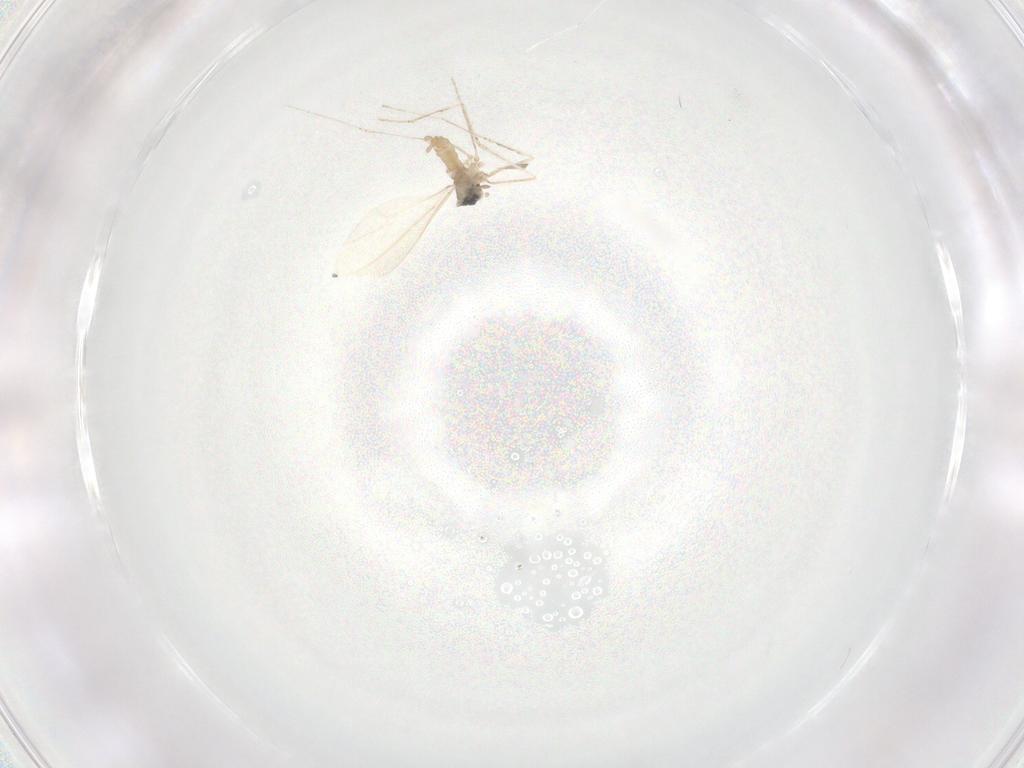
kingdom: Animalia
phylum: Arthropoda
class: Insecta
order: Diptera
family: Cecidomyiidae
